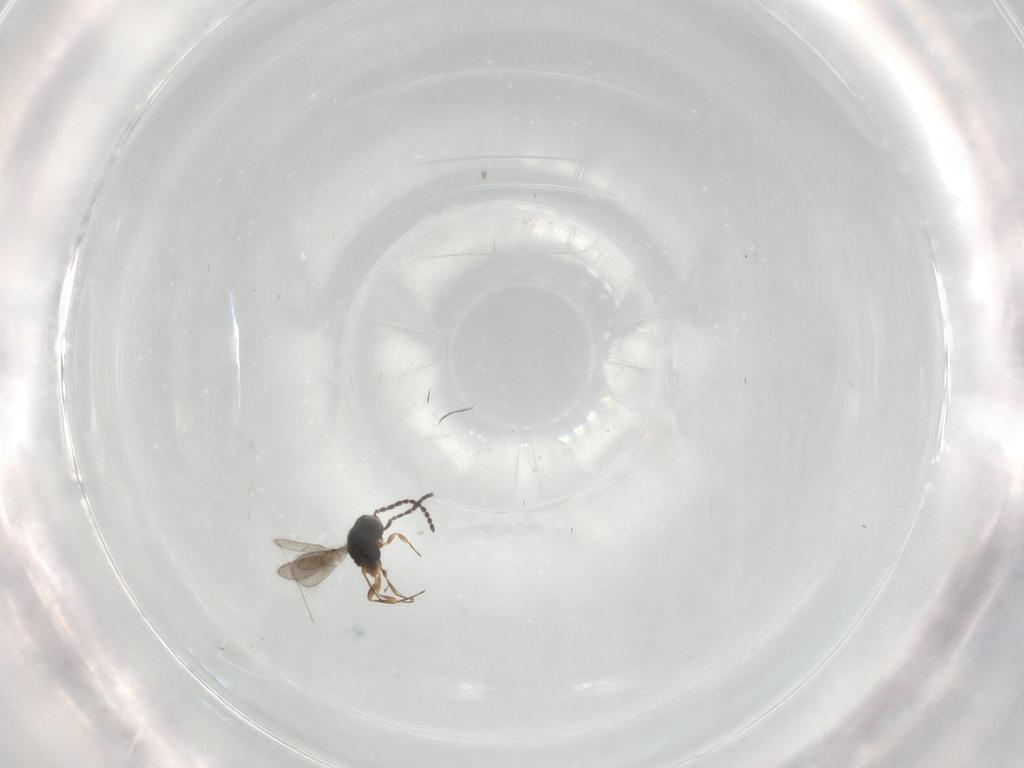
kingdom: Animalia
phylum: Arthropoda
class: Insecta
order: Hymenoptera
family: Scelionidae
